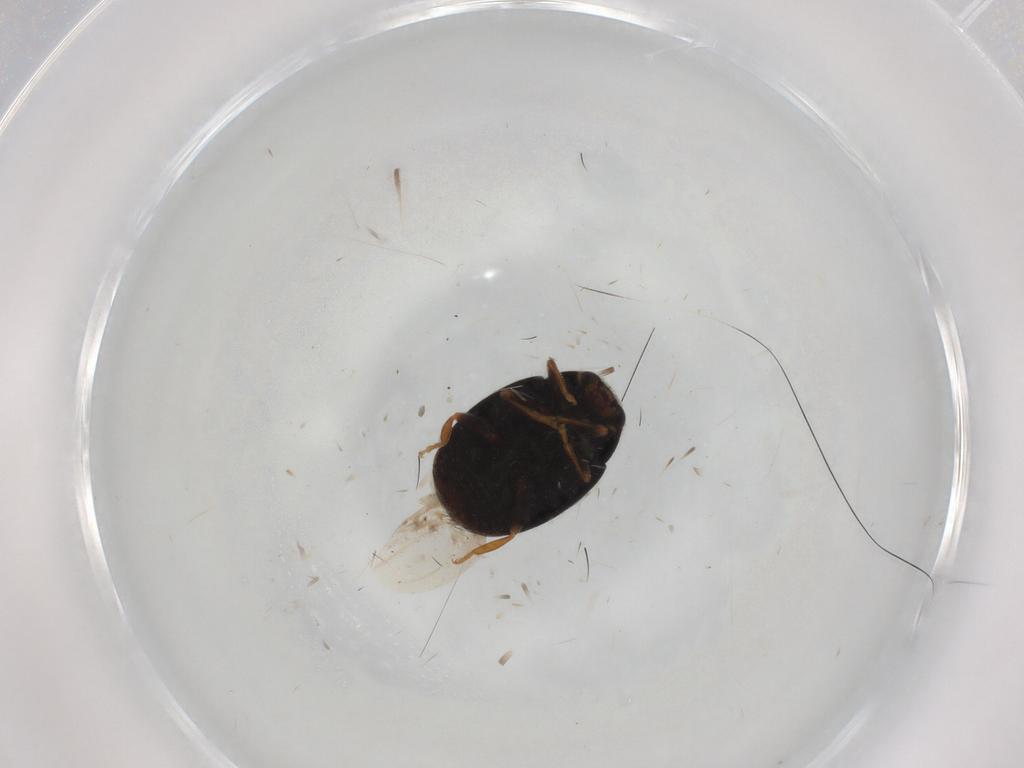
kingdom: Animalia
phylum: Arthropoda
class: Insecta
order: Coleoptera
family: Coccinellidae
